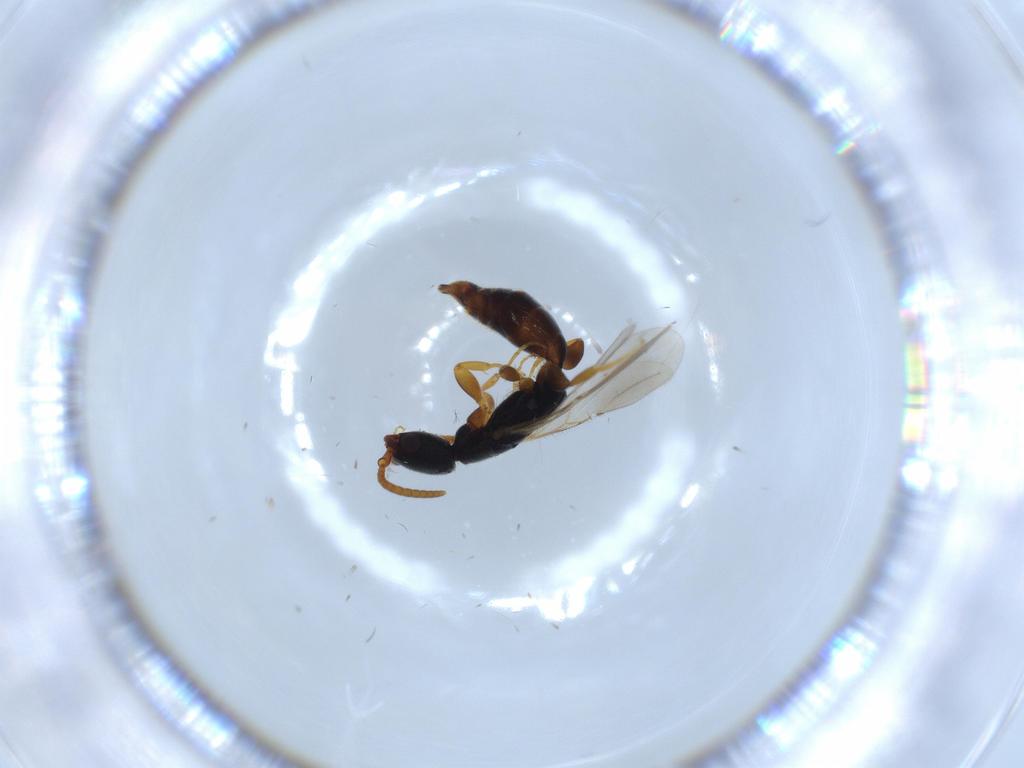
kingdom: Animalia
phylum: Arthropoda
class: Insecta
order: Hymenoptera
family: Bethylidae
